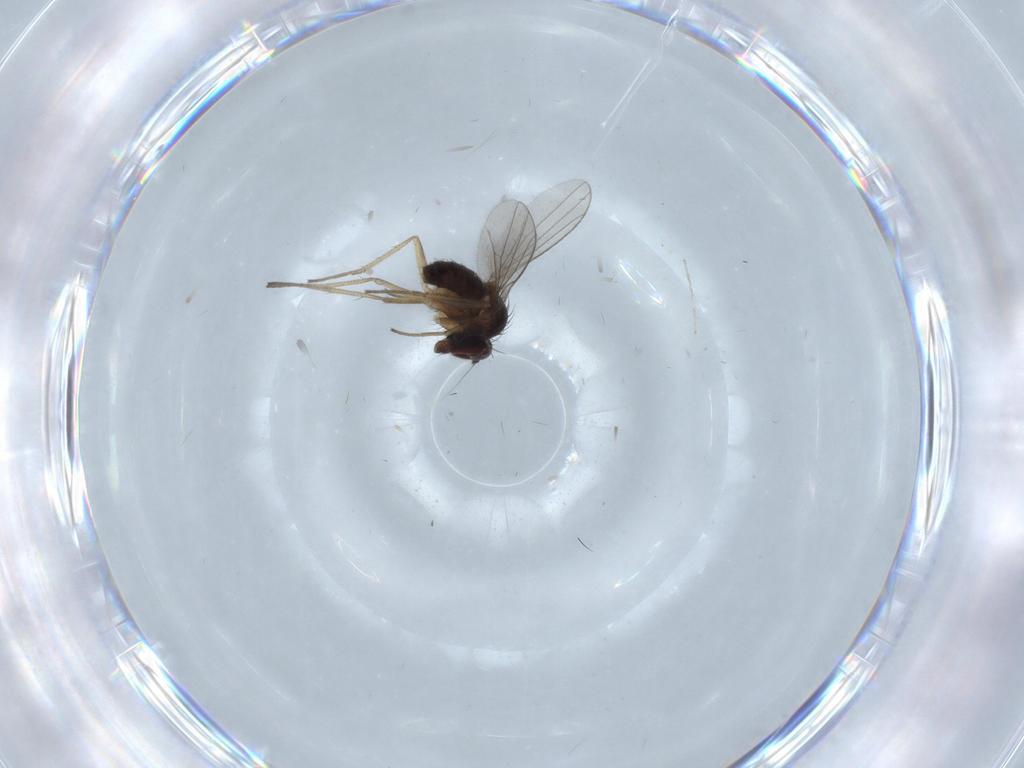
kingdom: Animalia
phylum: Arthropoda
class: Insecta
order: Diptera
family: Dolichopodidae
